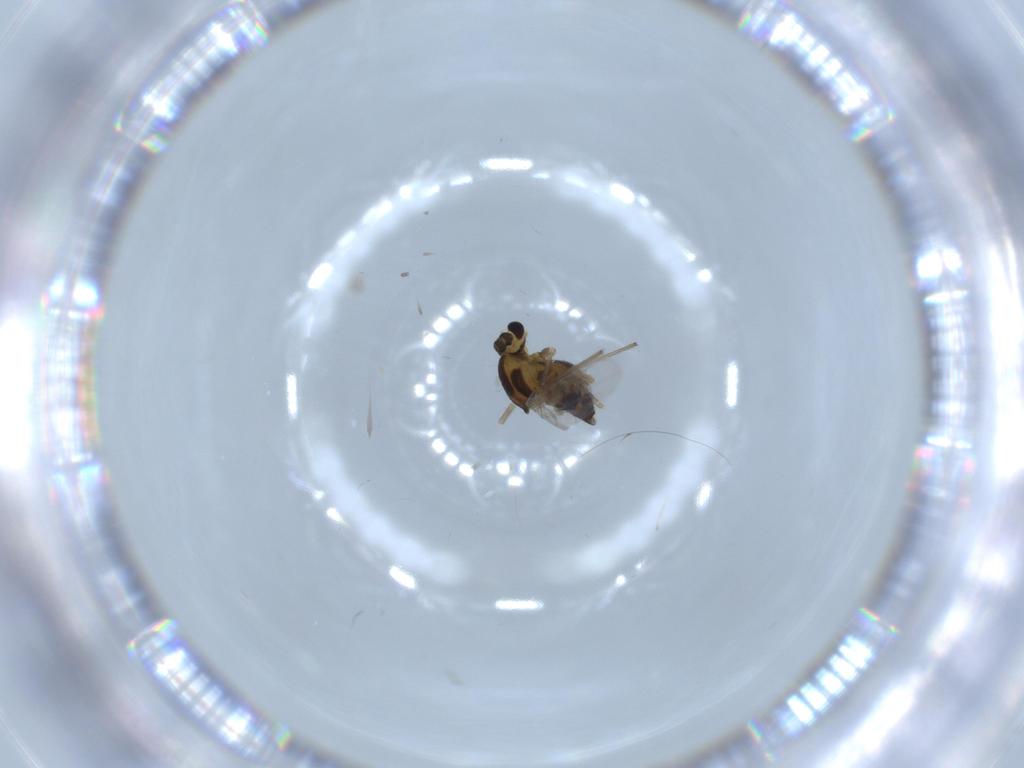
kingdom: Animalia
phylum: Arthropoda
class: Insecta
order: Diptera
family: Chironomidae
